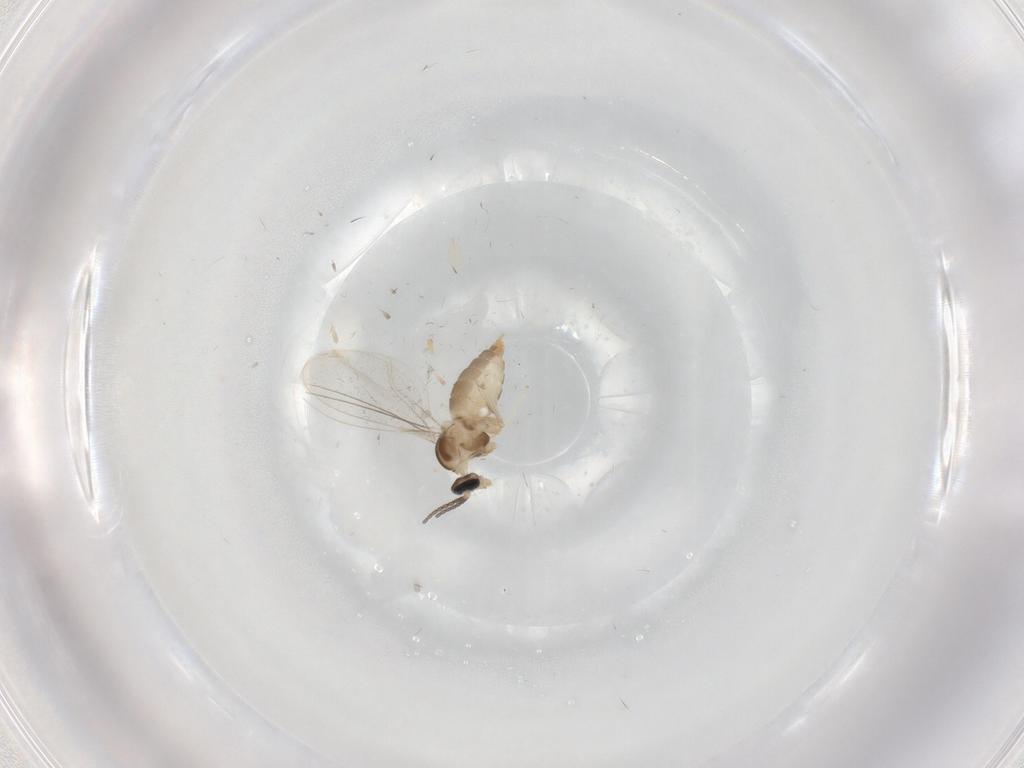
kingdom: Animalia
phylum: Arthropoda
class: Insecta
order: Diptera
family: Cecidomyiidae
